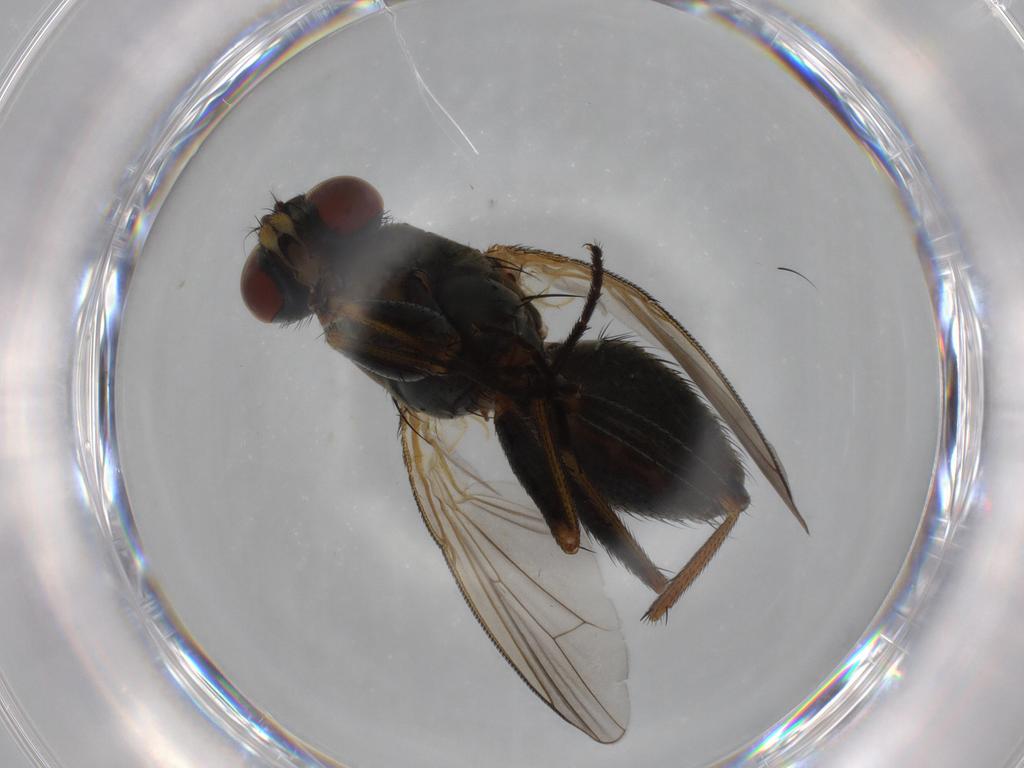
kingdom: Animalia
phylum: Arthropoda
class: Insecta
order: Diptera
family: Muscidae
